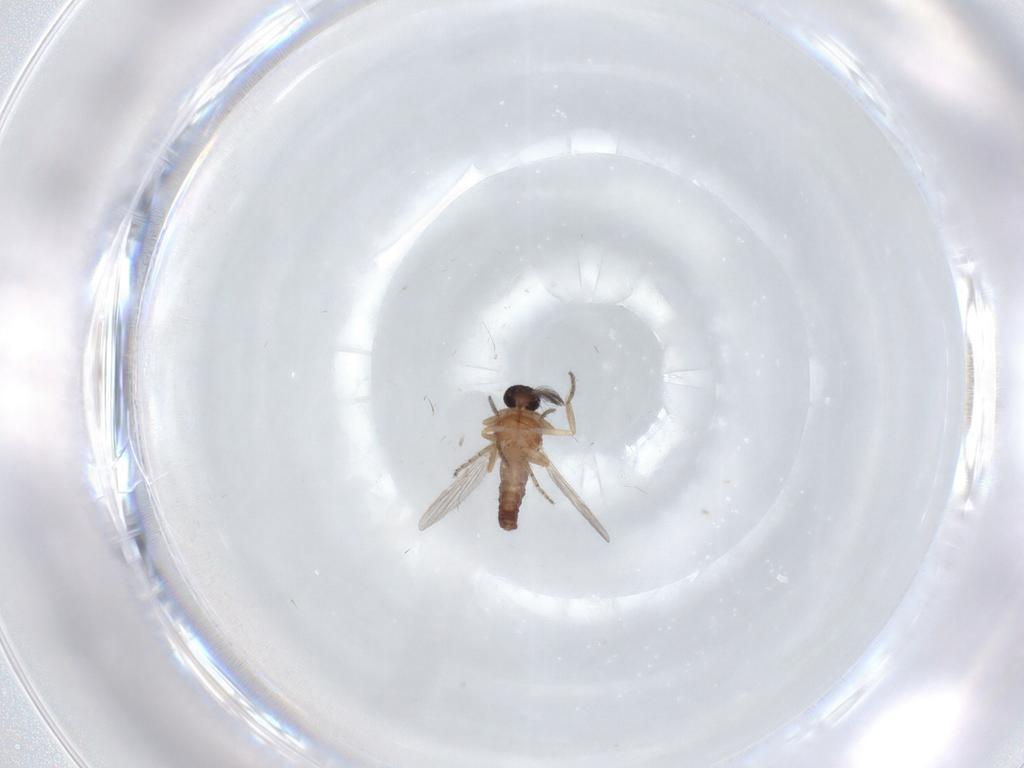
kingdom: Animalia
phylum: Arthropoda
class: Insecta
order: Diptera
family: Ceratopogonidae
